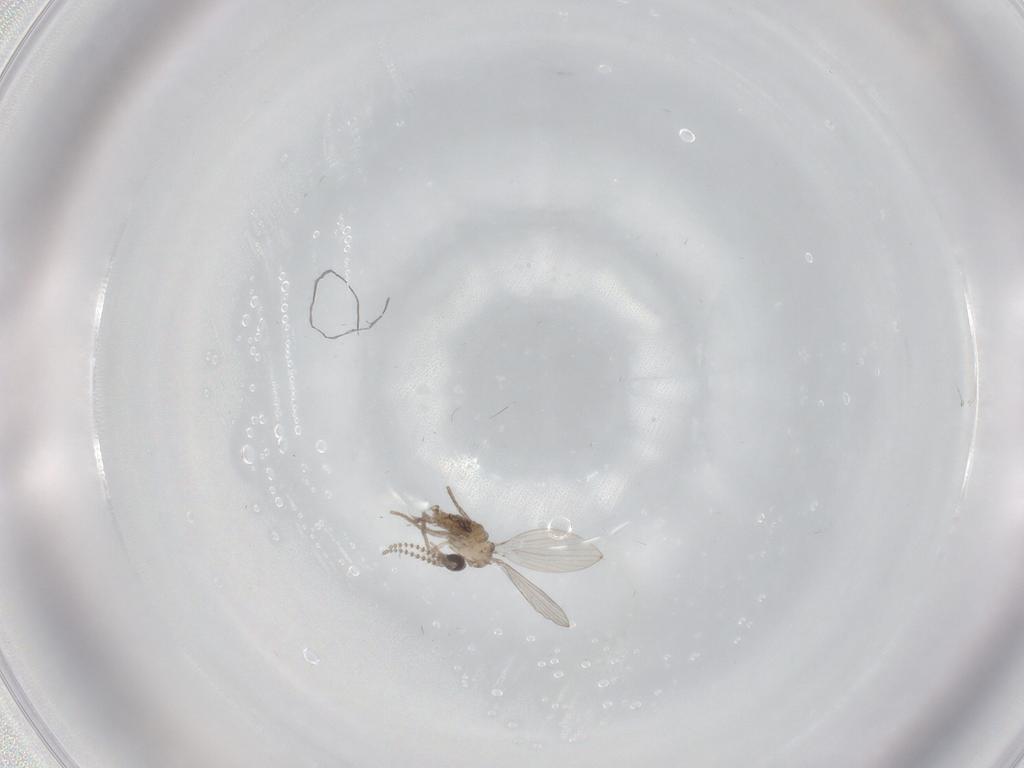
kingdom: Animalia
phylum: Arthropoda
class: Insecta
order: Diptera
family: Psychodidae
